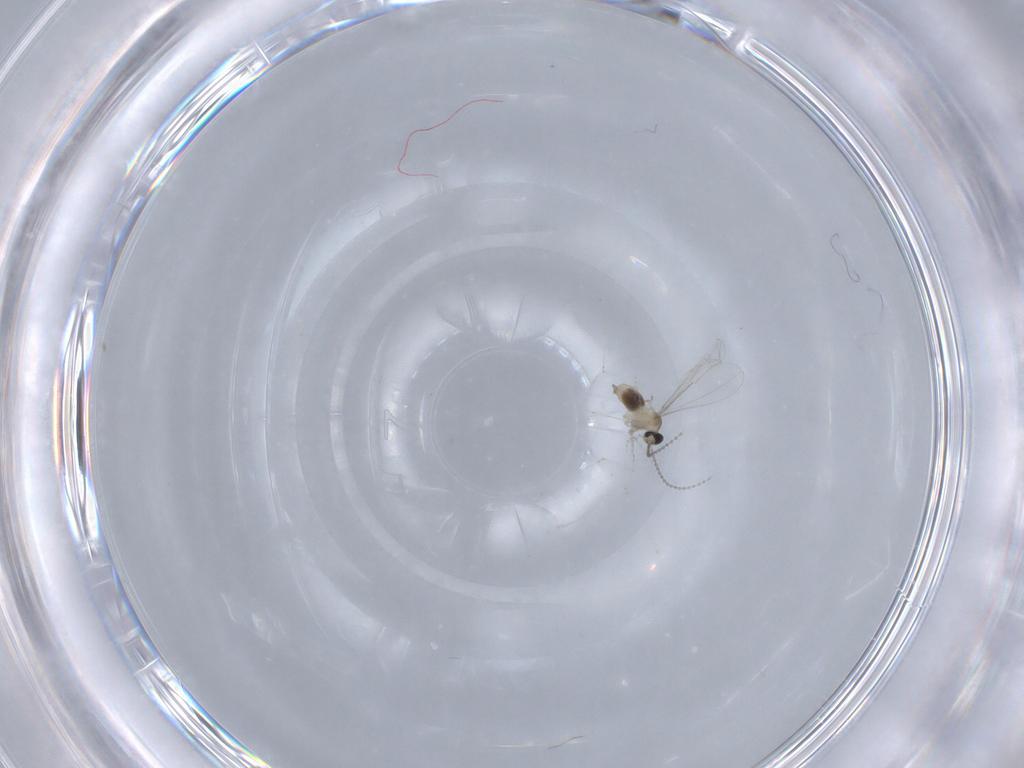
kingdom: Animalia
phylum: Arthropoda
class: Insecta
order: Diptera
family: Cecidomyiidae
